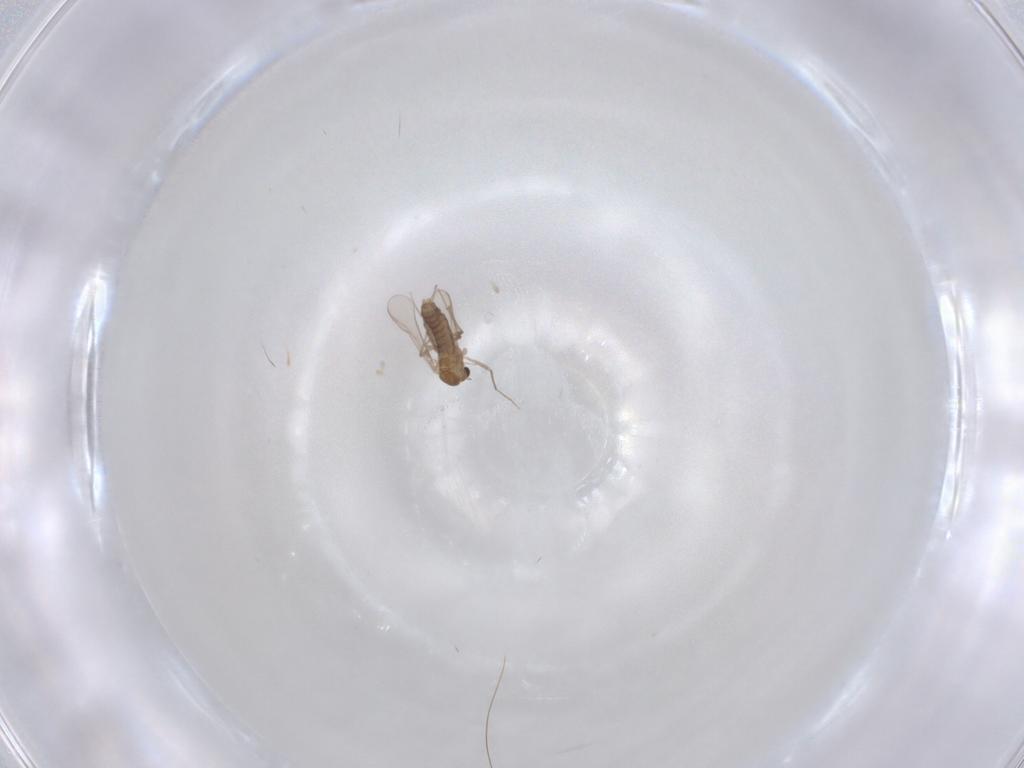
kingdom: Animalia
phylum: Arthropoda
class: Insecta
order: Diptera
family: Chironomidae
